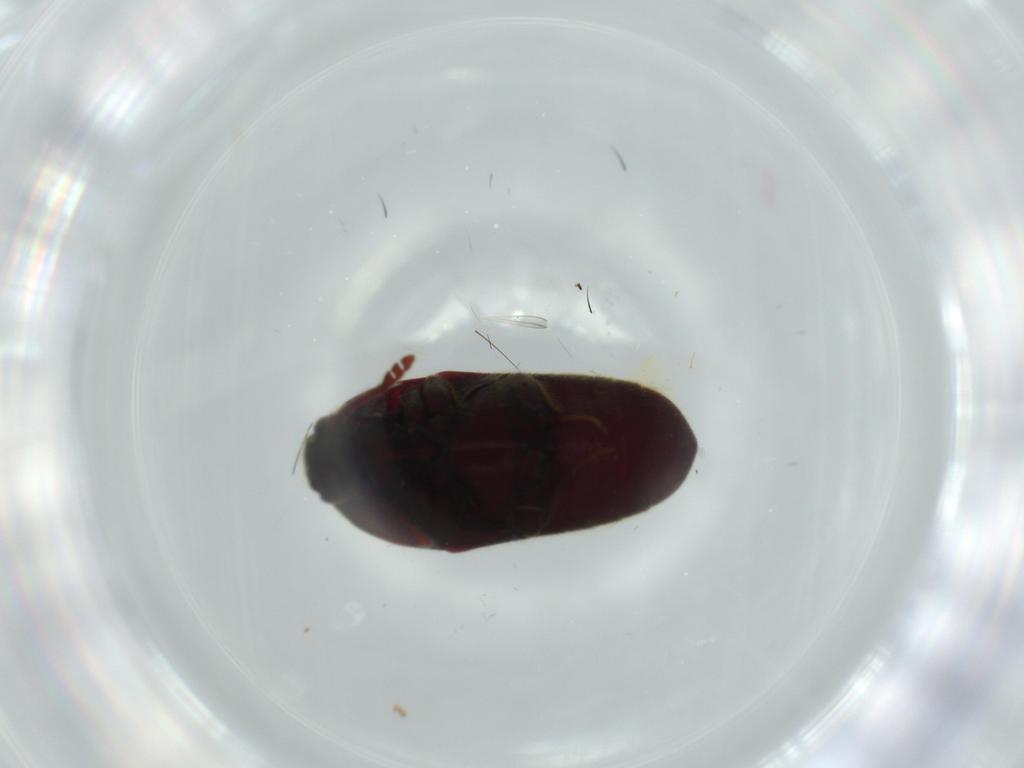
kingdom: Animalia
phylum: Arthropoda
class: Insecta
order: Coleoptera
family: Throscidae
